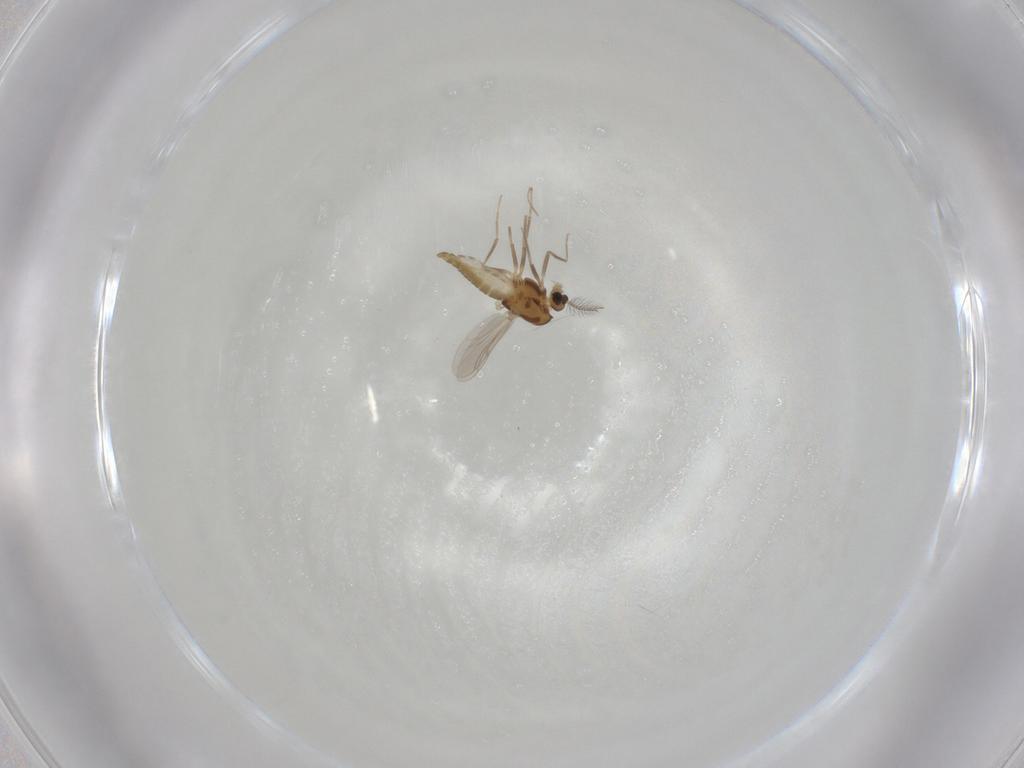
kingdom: Animalia
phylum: Arthropoda
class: Insecta
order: Diptera
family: Chironomidae
